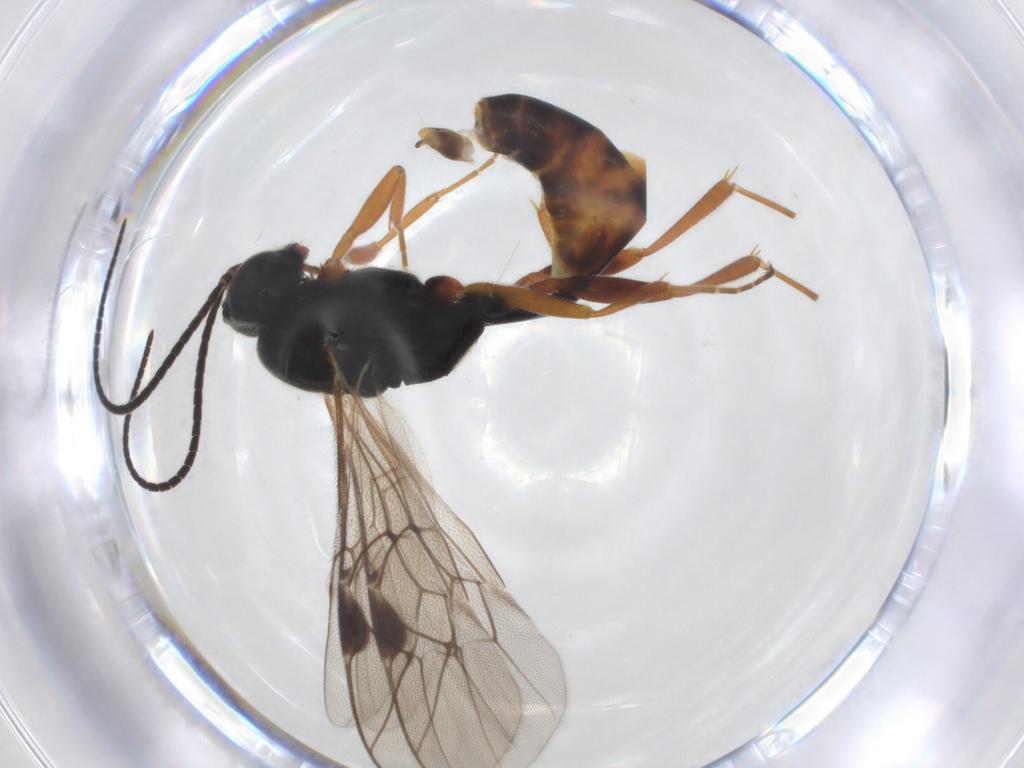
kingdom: Animalia
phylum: Arthropoda
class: Insecta
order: Hymenoptera
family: Ichneumonidae
